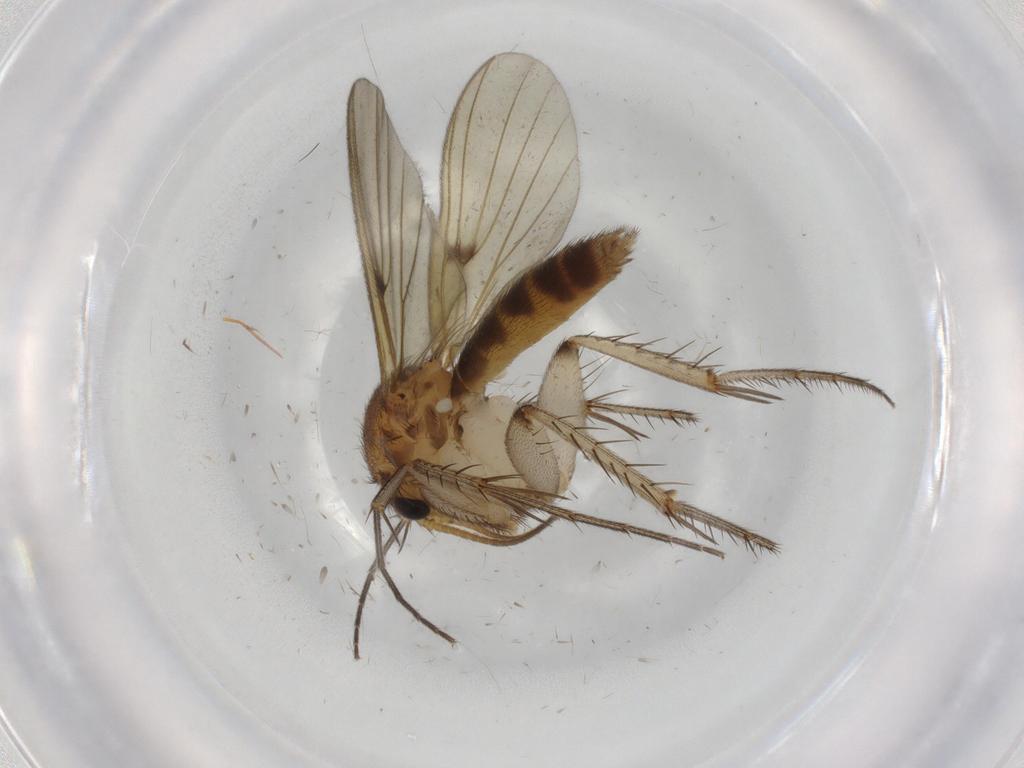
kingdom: Animalia
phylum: Arthropoda
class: Insecta
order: Diptera
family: Mycetophilidae
